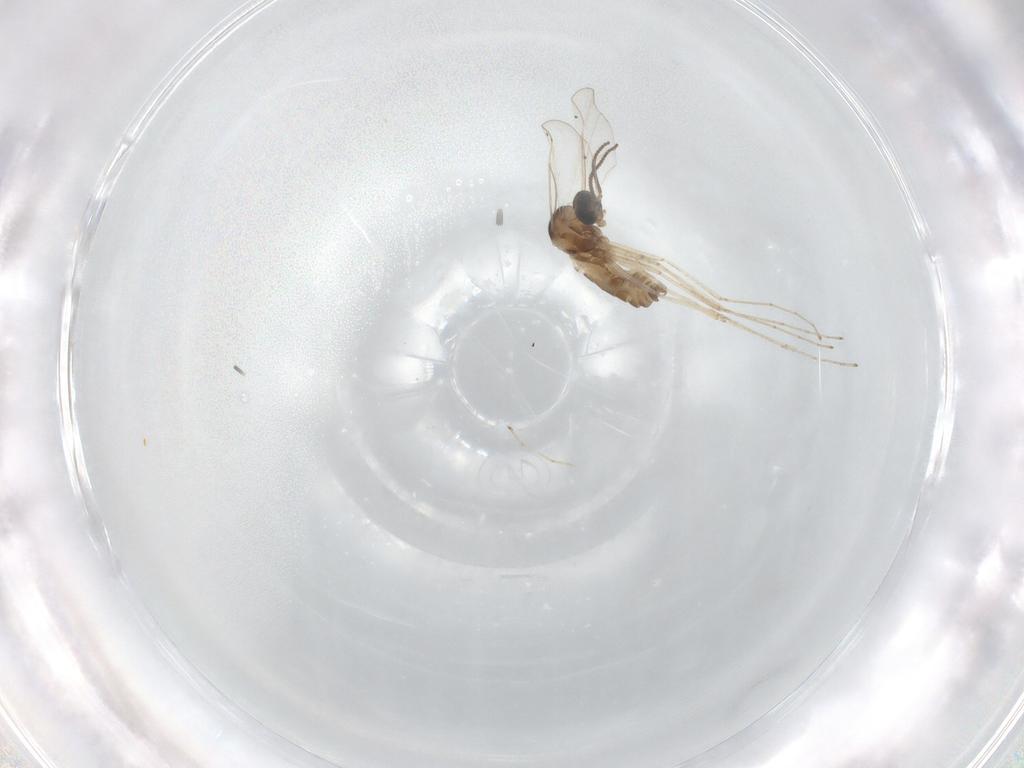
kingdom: Animalia
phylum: Arthropoda
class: Insecta
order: Diptera
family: Cecidomyiidae
